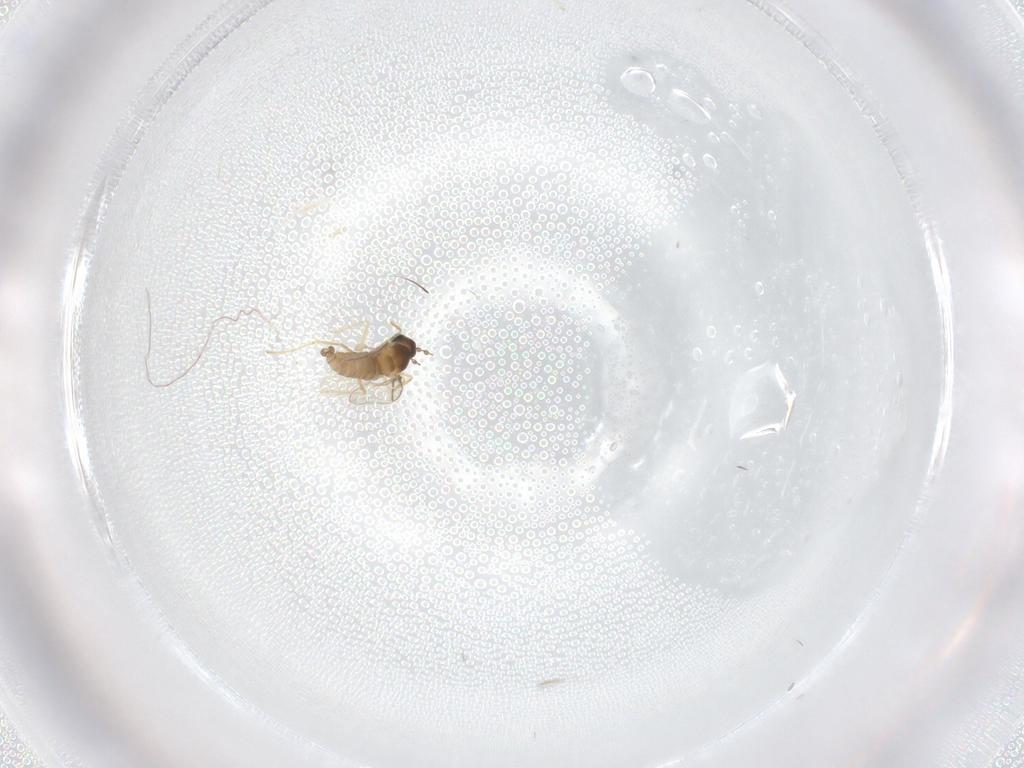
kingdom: Animalia
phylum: Arthropoda
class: Insecta
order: Diptera
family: Cecidomyiidae
